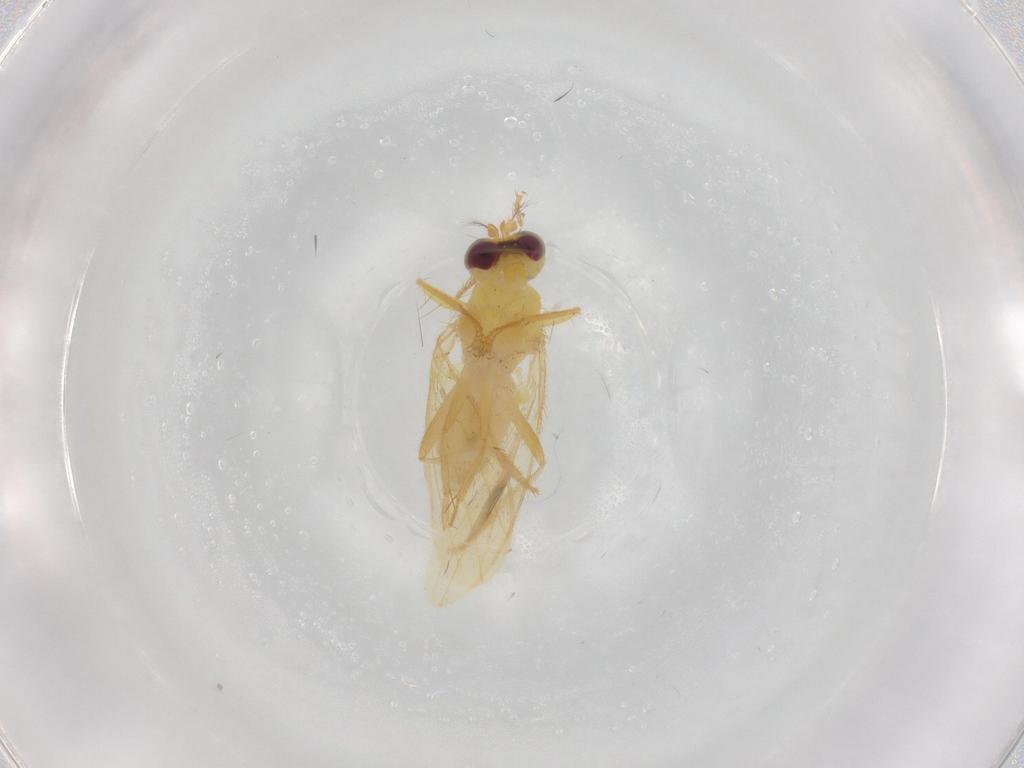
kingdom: Animalia
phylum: Arthropoda
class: Insecta
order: Diptera
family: Periscelididae
